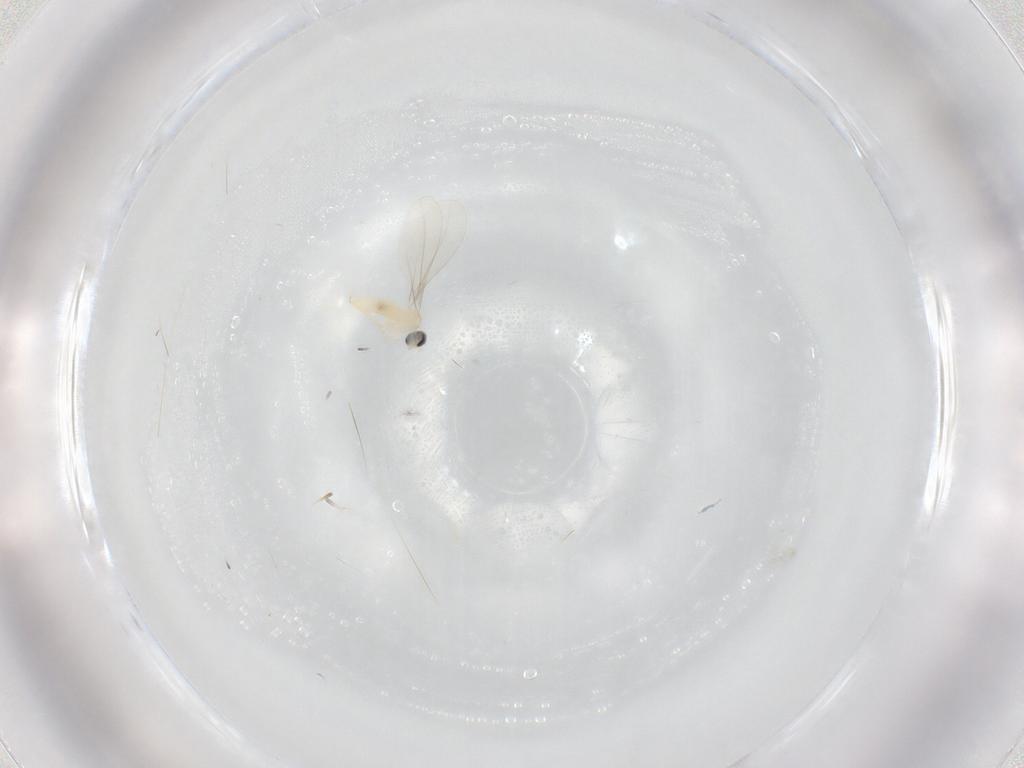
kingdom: Animalia
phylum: Arthropoda
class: Insecta
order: Diptera
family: Cecidomyiidae
